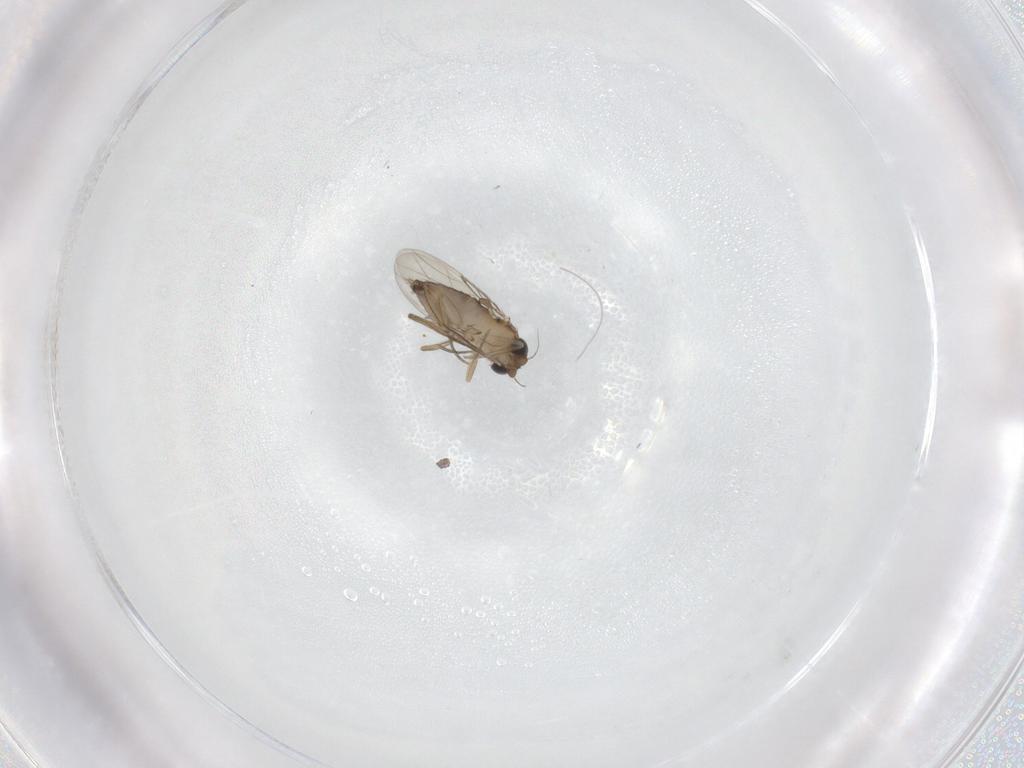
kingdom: Animalia
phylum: Arthropoda
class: Insecta
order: Diptera
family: Phoridae
